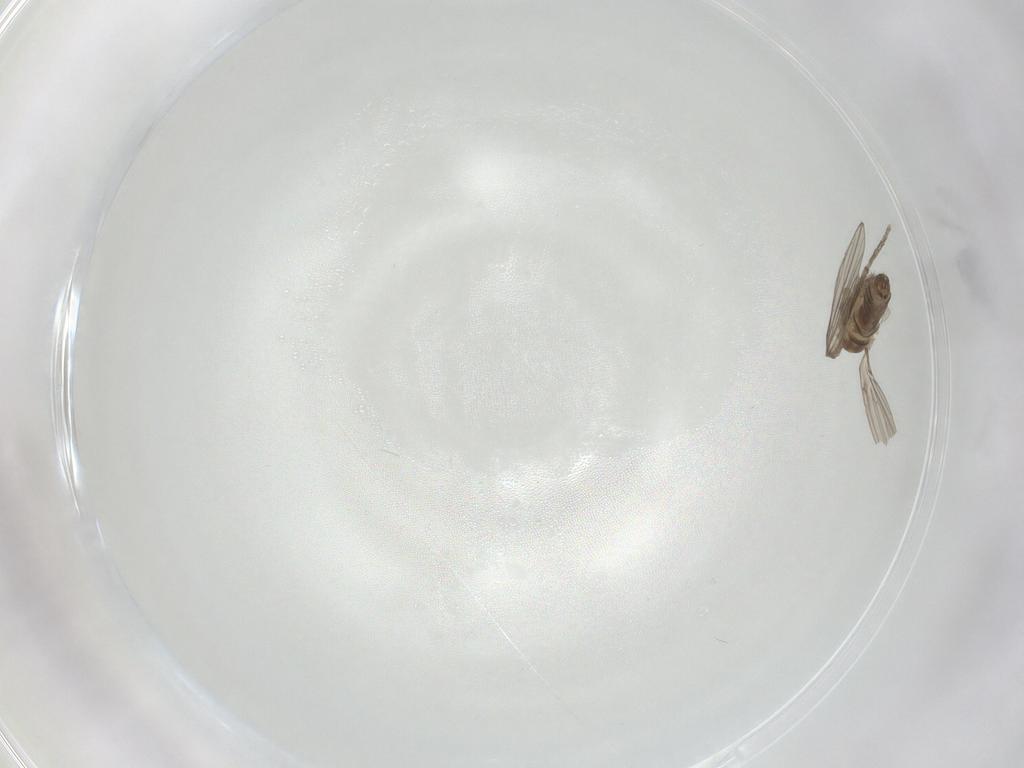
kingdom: Animalia
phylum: Arthropoda
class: Insecta
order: Diptera
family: Psychodidae
